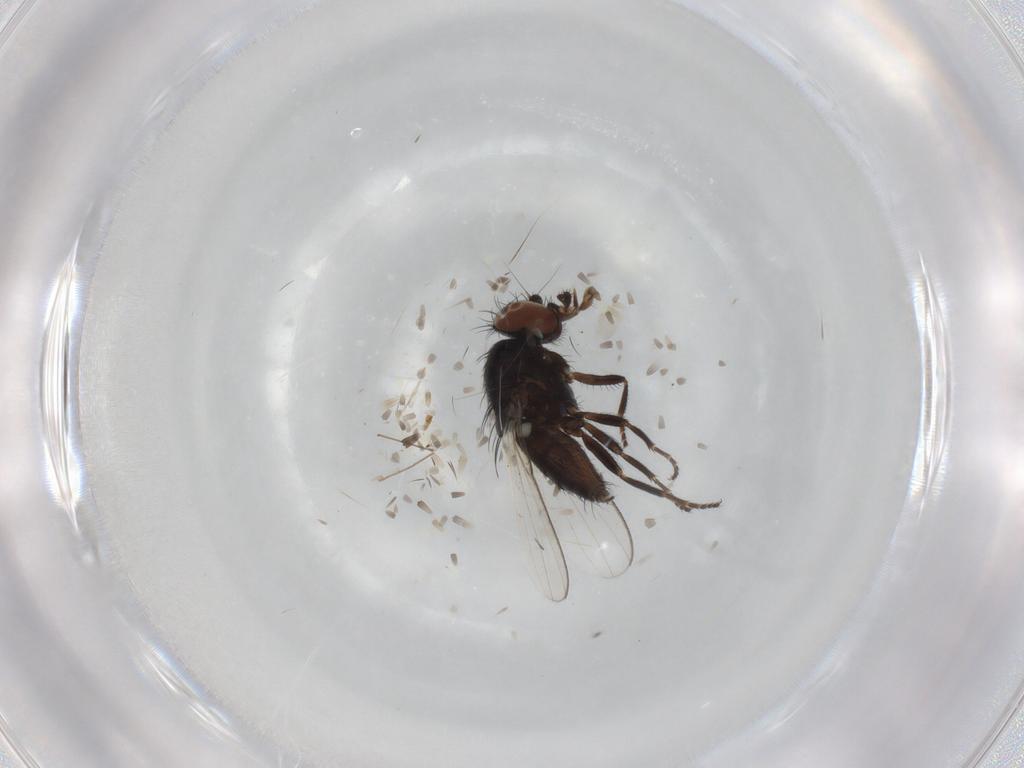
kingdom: Animalia
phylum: Arthropoda
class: Insecta
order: Diptera
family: Milichiidae
